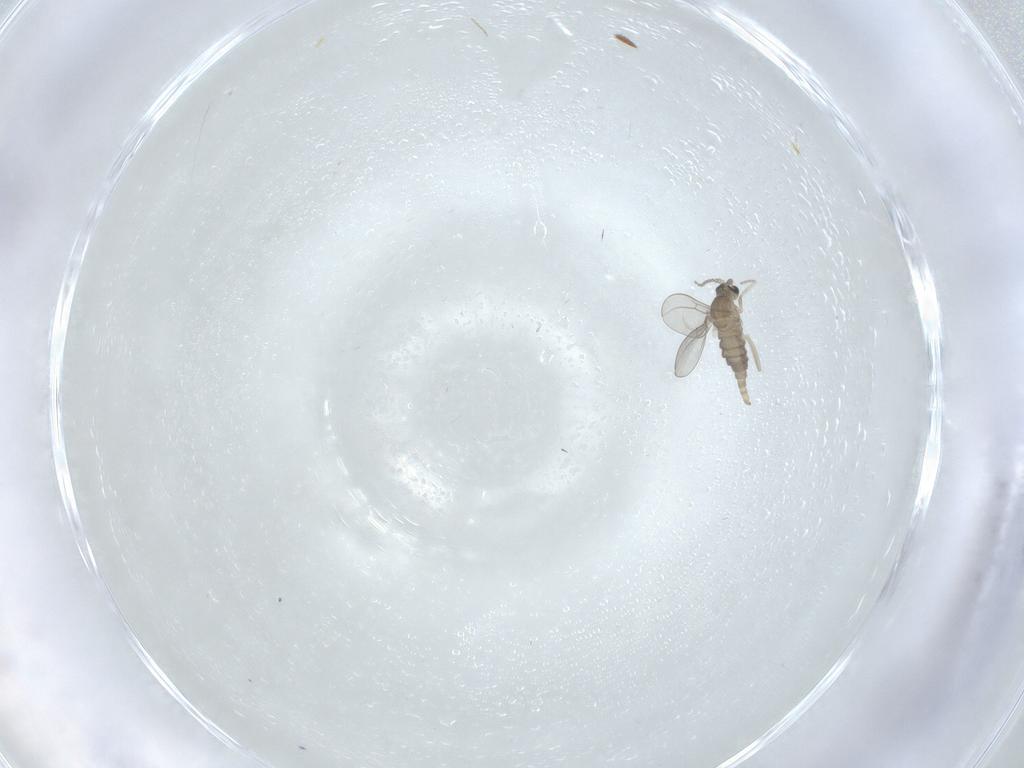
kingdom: Animalia
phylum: Arthropoda
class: Insecta
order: Diptera
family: Cecidomyiidae
